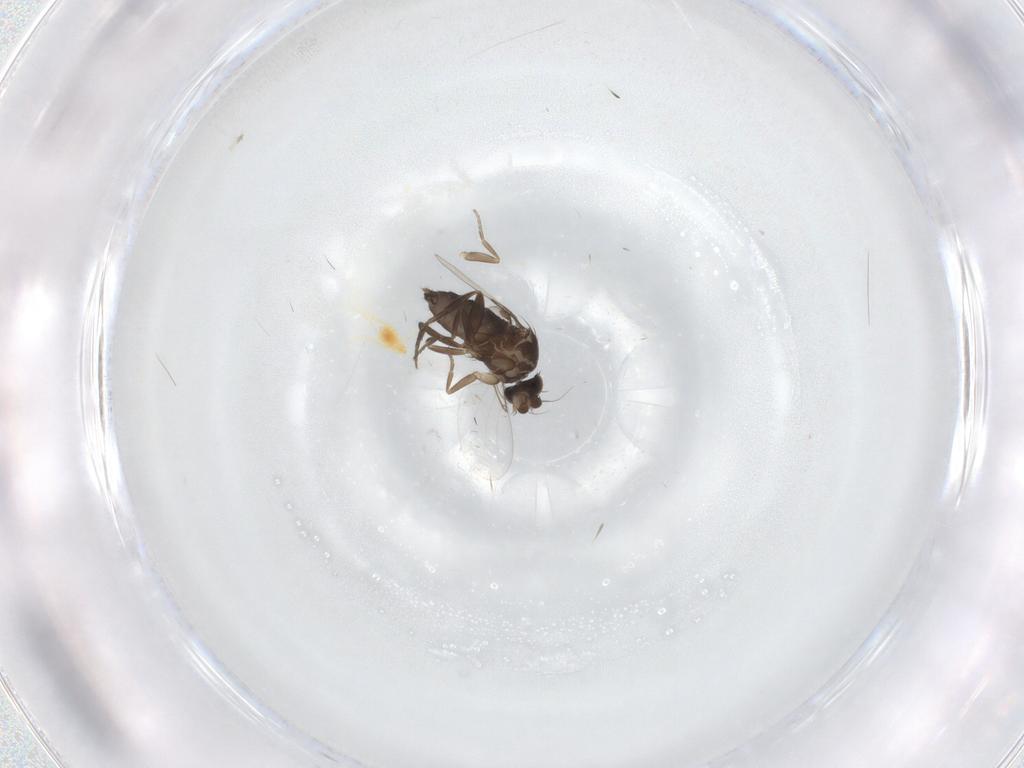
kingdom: Animalia
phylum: Arthropoda
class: Insecta
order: Diptera
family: Phoridae
